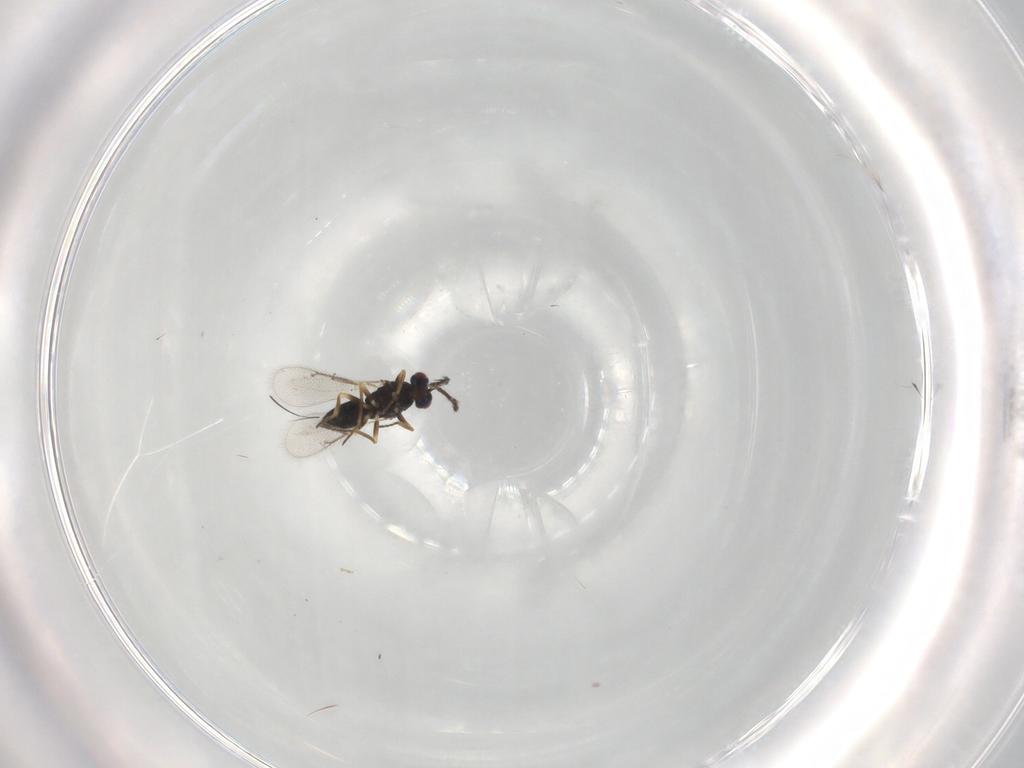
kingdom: Animalia
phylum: Arthropoda
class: Insecta
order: Hymenoptera
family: Eulophidae
